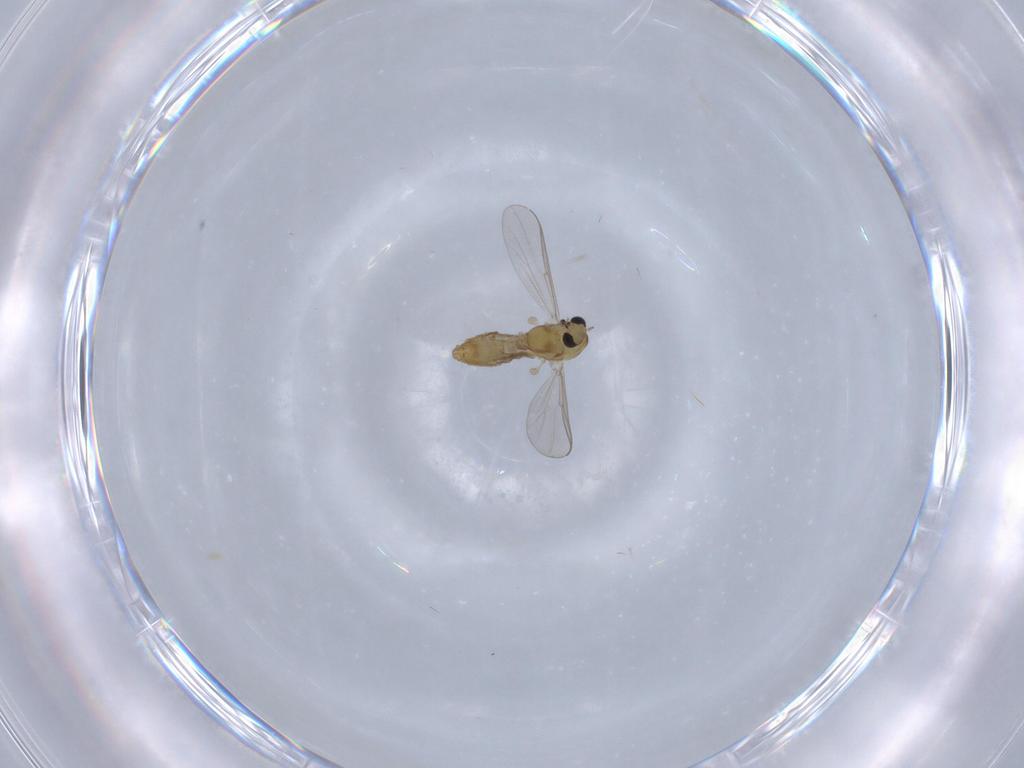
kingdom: Animalia
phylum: Arthropoda
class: Insecta
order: Diptera
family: Chironomidae
